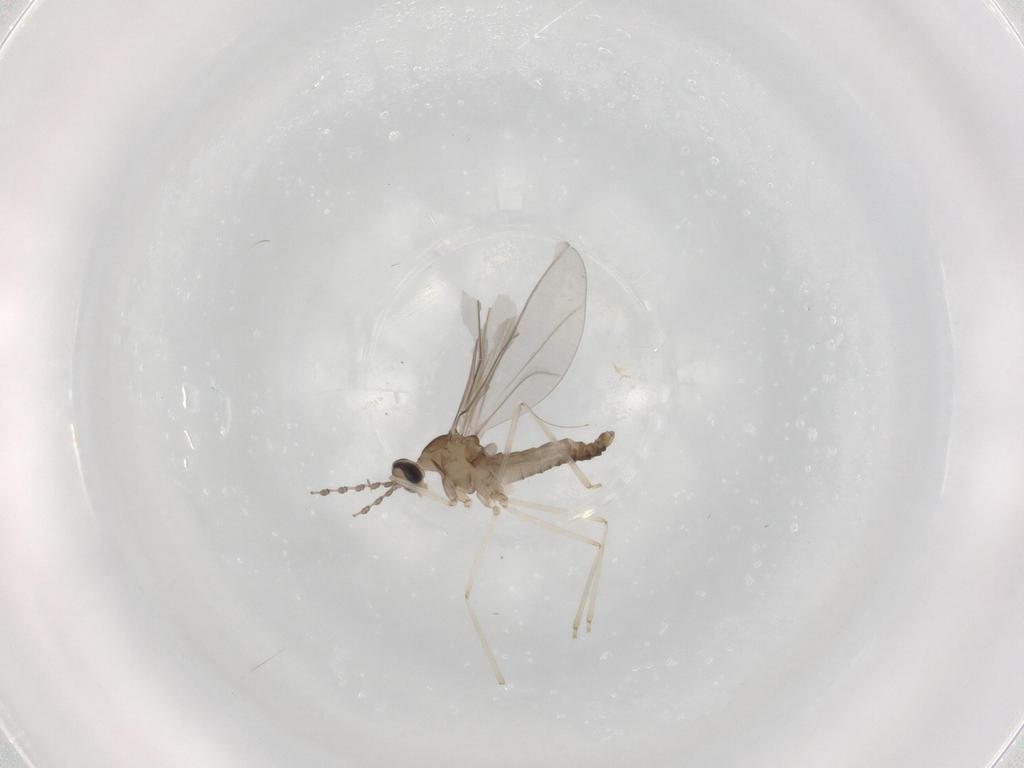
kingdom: Animalia
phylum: Arthropoda
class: Insecta
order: Diptera
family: Cecidomyiidae
